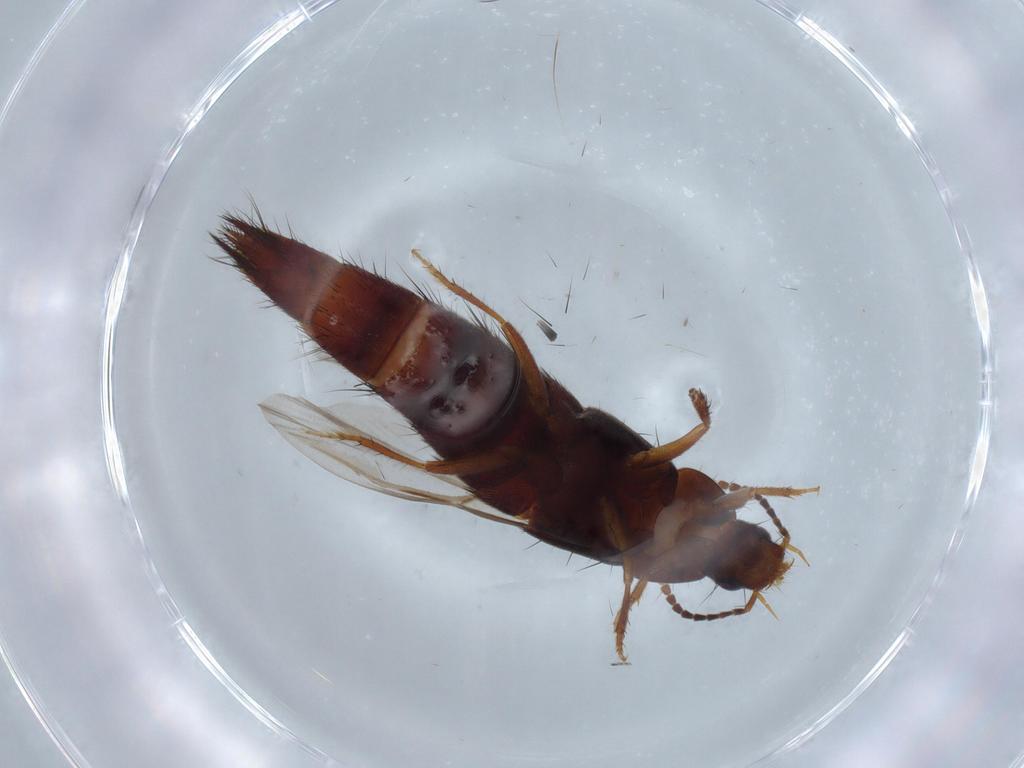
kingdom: Animalia
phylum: Arthropoda
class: Insecta
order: Coleoptera
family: Staphylinidae
